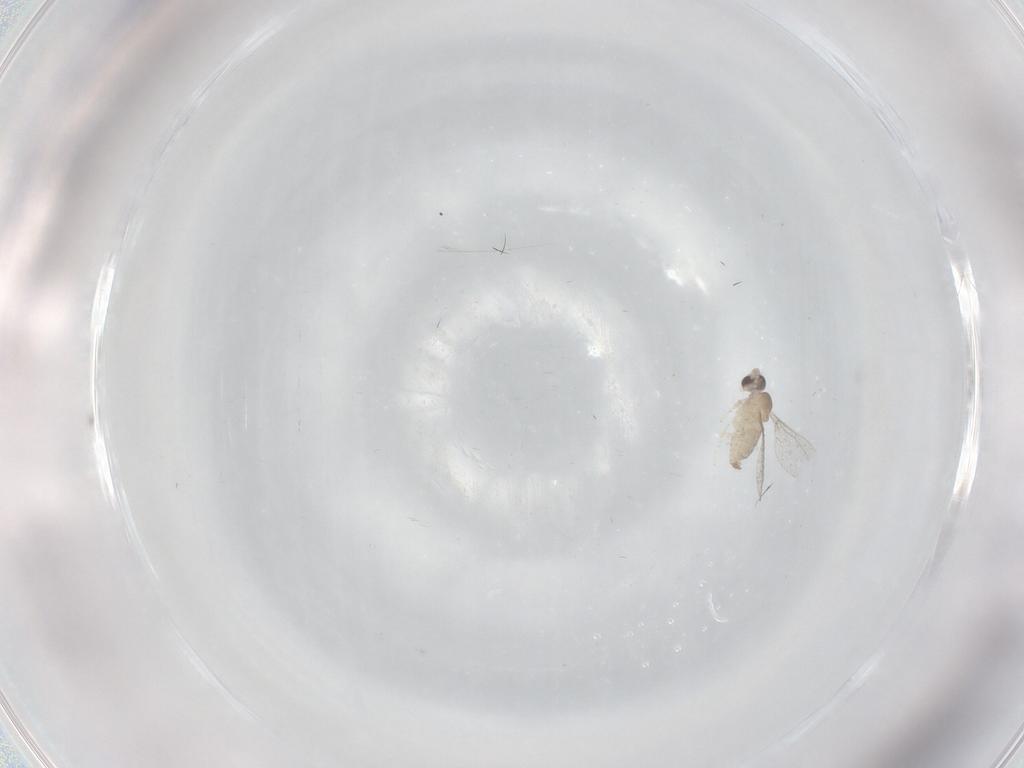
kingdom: Animalia
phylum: Arthropoda
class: Insecta
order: Diptera
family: Cecidomyiidae
